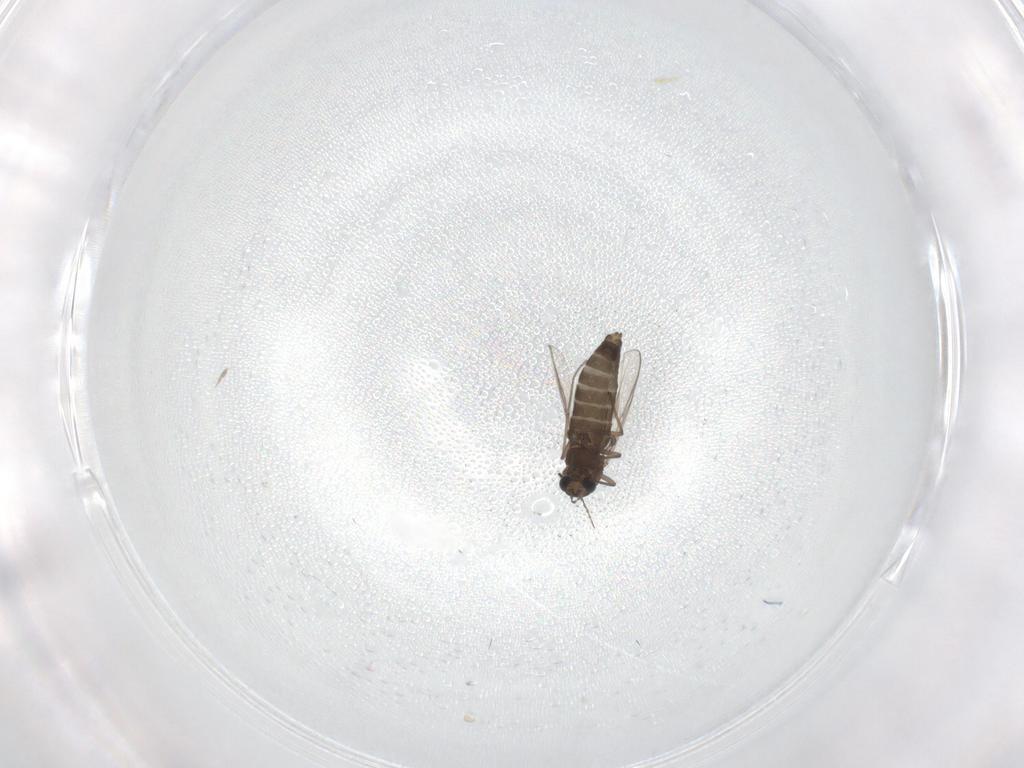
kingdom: Animalia
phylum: Arthropoda
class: Insecta
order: Diptera
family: Chironomidae
